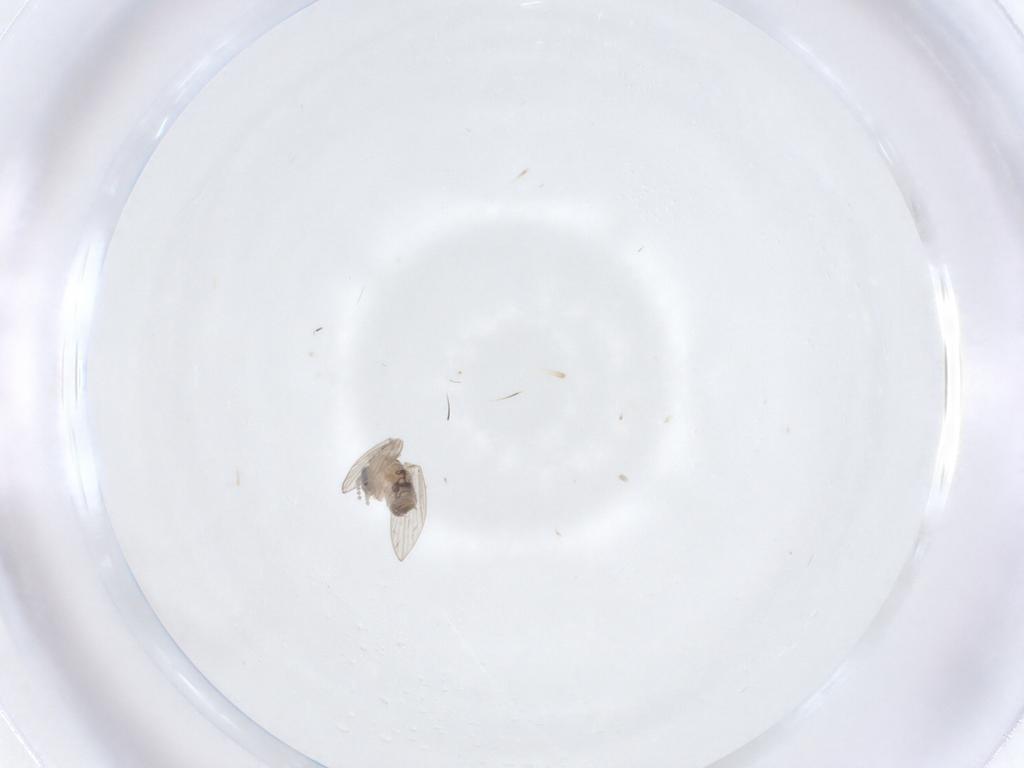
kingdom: Animalia
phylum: Arthropoda
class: Insecta
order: Diptera
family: Psychodidae
